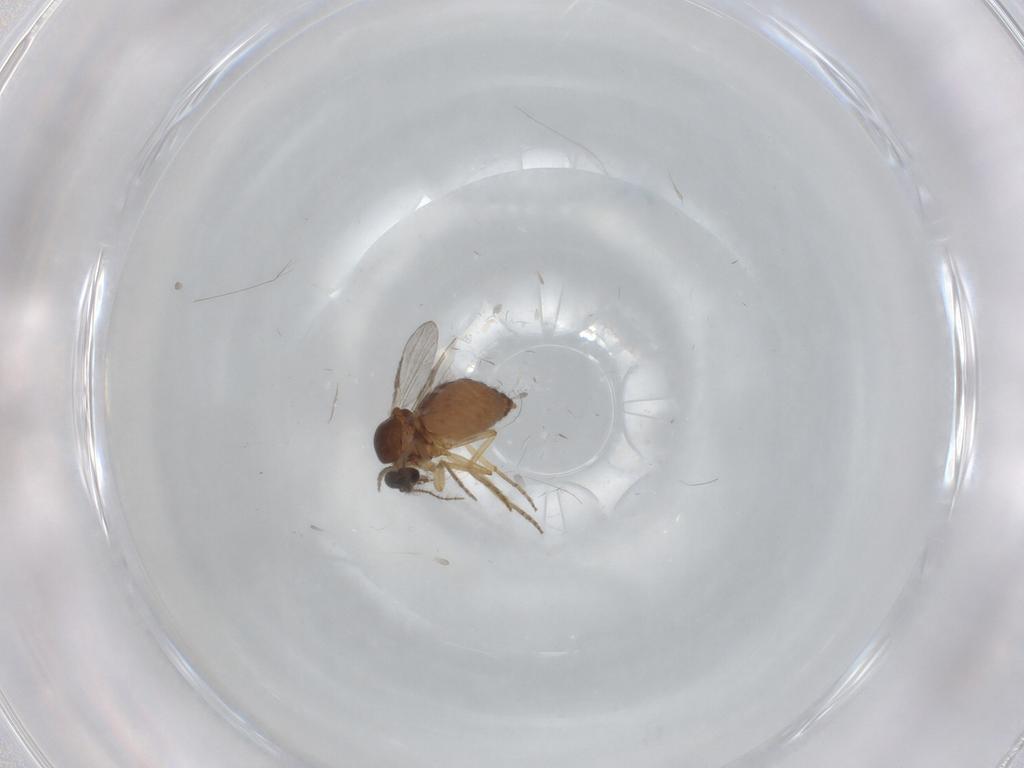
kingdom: Animalia
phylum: Arthropoda
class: Insecta
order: Diptera
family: Ceratopogonidae
